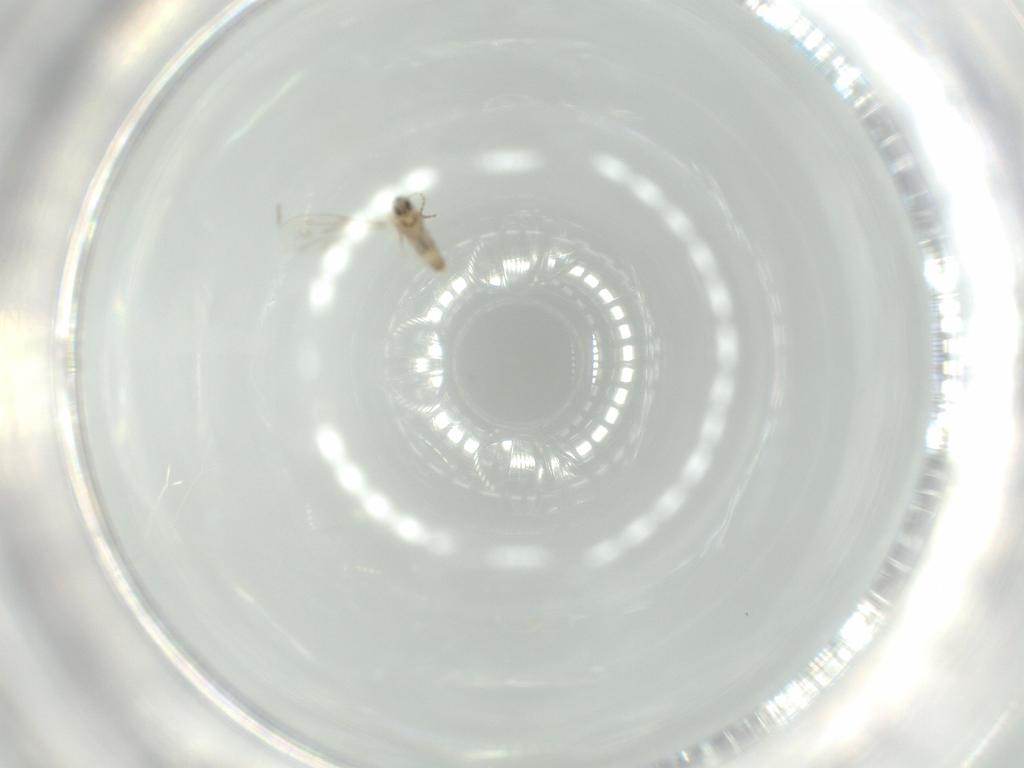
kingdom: Animalia
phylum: Arthropoda
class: Insecta
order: Diptera
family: Cecidomyiidae
